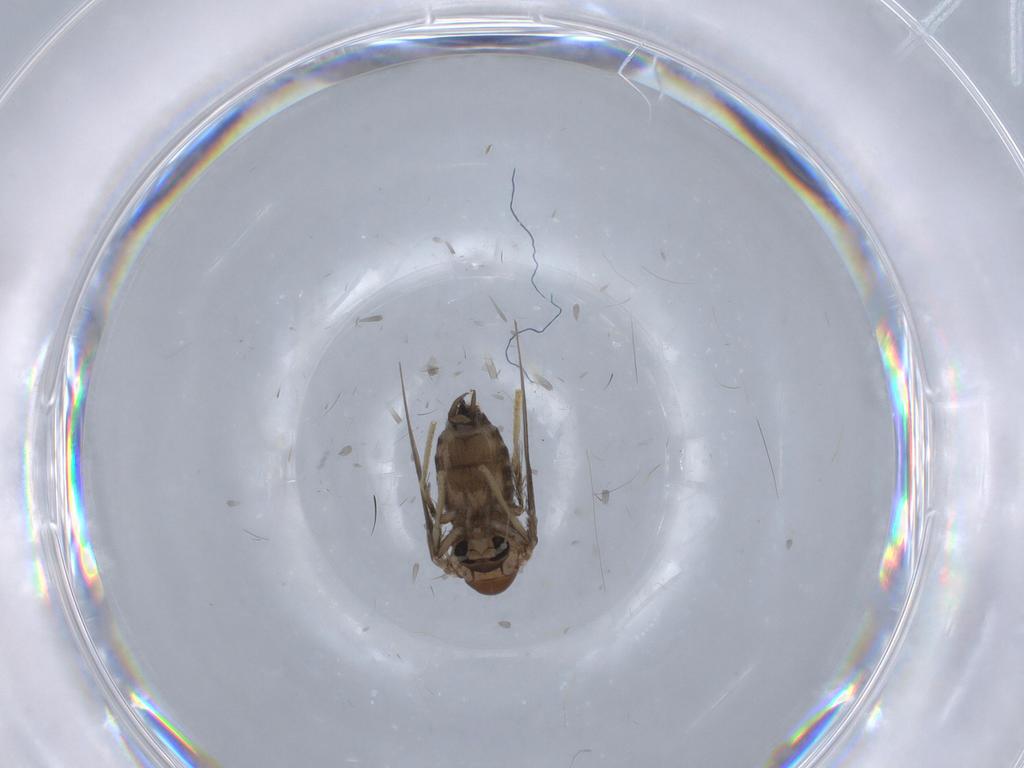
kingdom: Animalia
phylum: Arthropoda
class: Insecta
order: Diptera
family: Psychodidae
